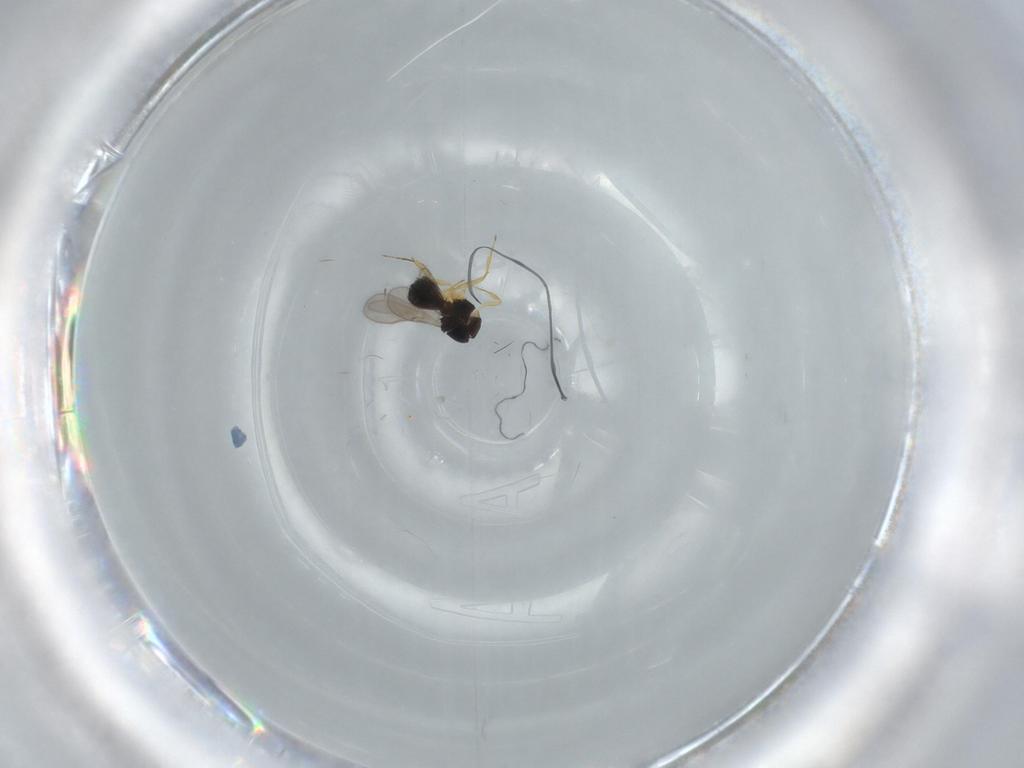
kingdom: Animalia
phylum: Arthropoda
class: Insecta
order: Hymenoptera
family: Scelionidae
